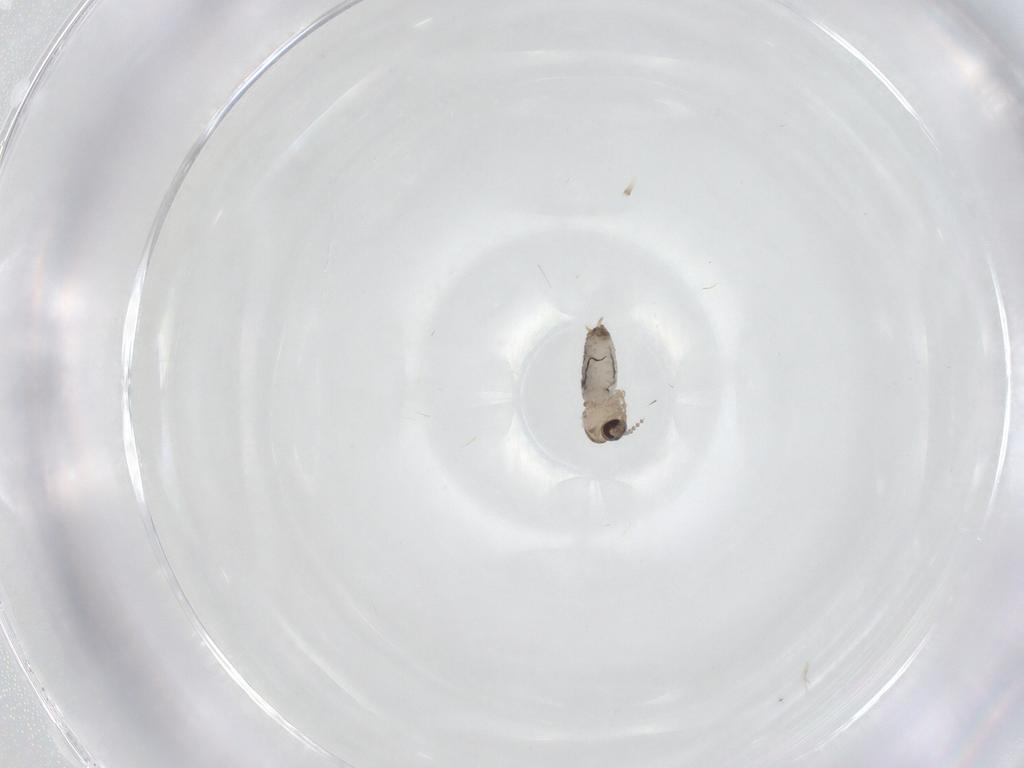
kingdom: Animalia
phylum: Arthropoda
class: Insecta
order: Diptera
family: Psychodidae
